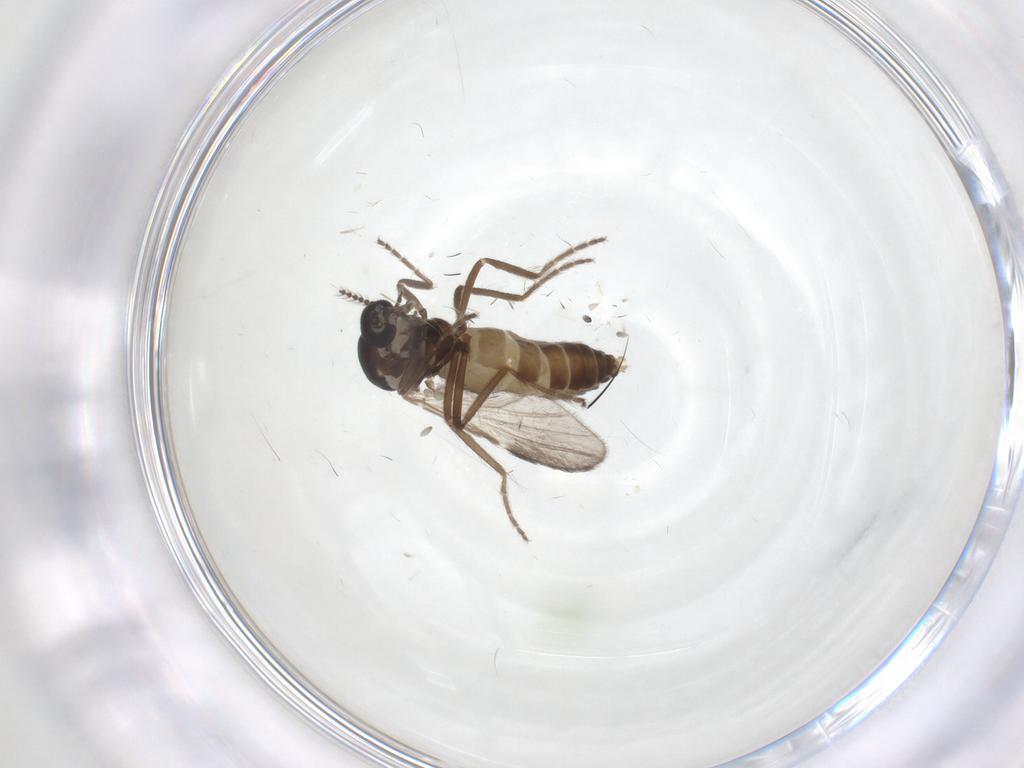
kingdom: Animalia
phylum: Arthropoda
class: Insecta
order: Diptera
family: Ceratopogonidae
